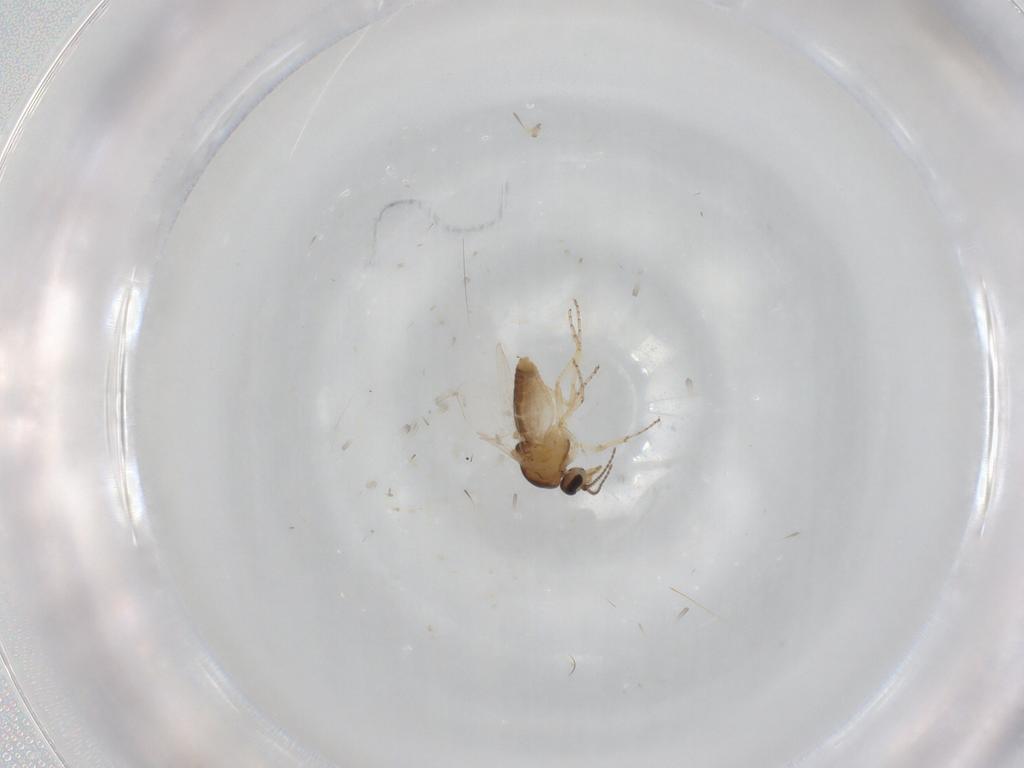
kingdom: Animalia
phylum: Arthropoda
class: Insecta
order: Diptera
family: Ceratopogonidae
